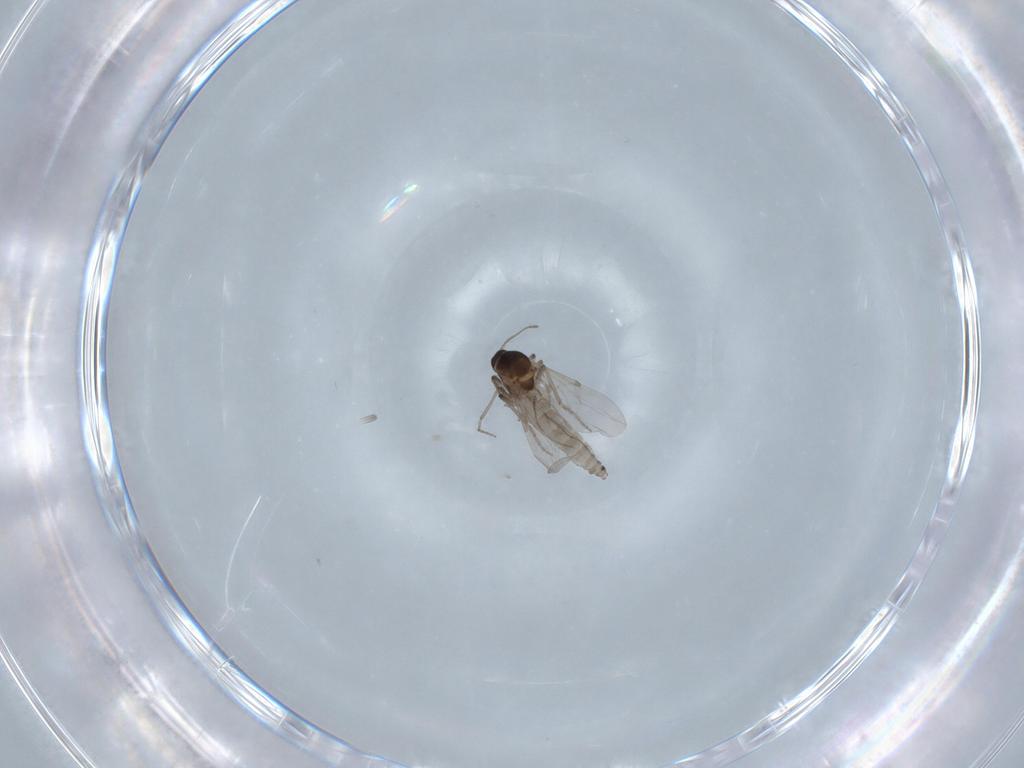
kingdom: Animalia
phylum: Arthropoda
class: Insecta
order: Diptera
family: Ceratopogonidae
